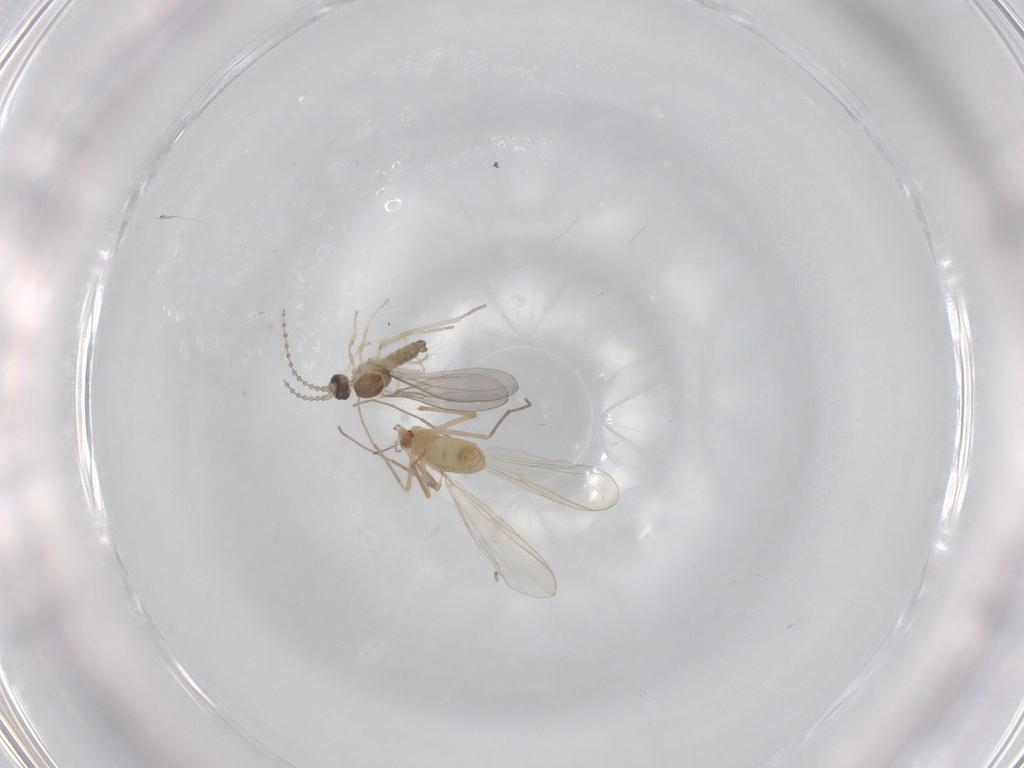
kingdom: Animalia
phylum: Arthropoda
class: Insecta
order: Diptera
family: Chironomidae
